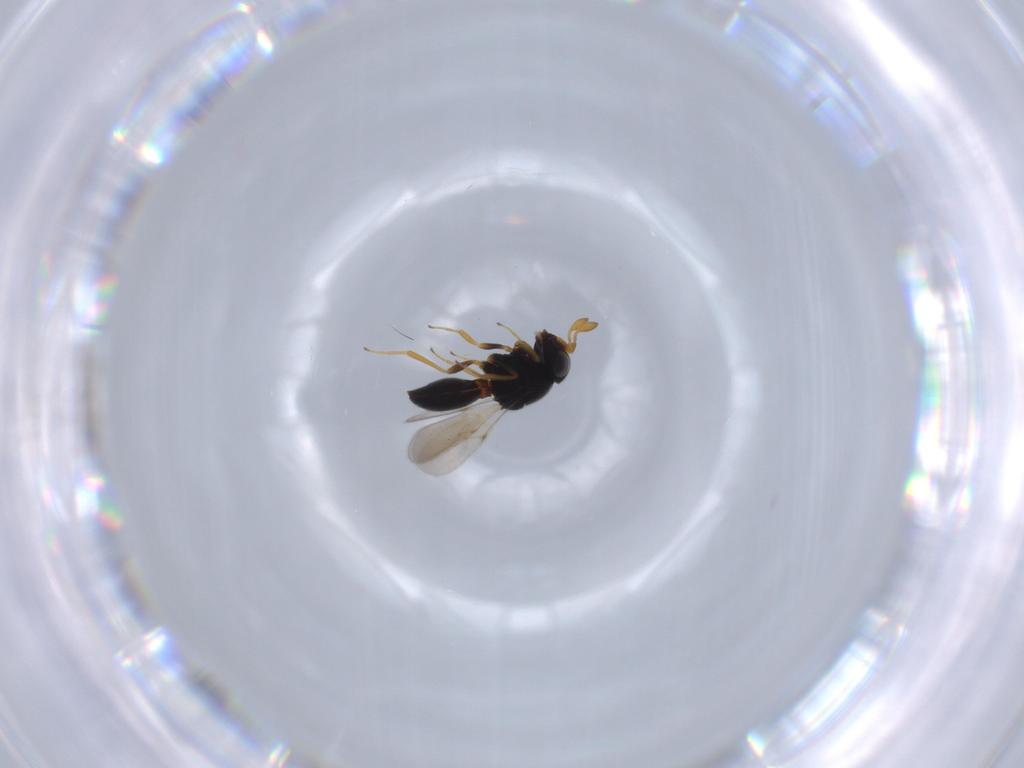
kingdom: Animalia
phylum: Arthropoda
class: Insecta
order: Hymenoptera
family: Scelionidae
